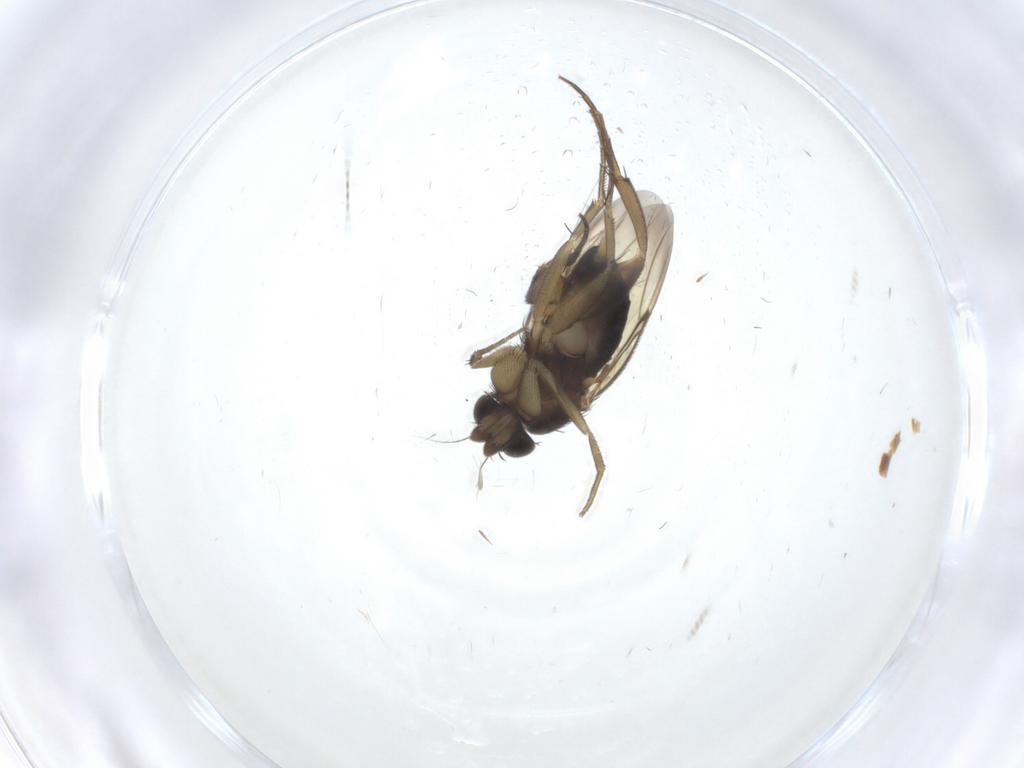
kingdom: Animalia
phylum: Arthropoda
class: Insecta
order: Diptera
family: Phoridae
